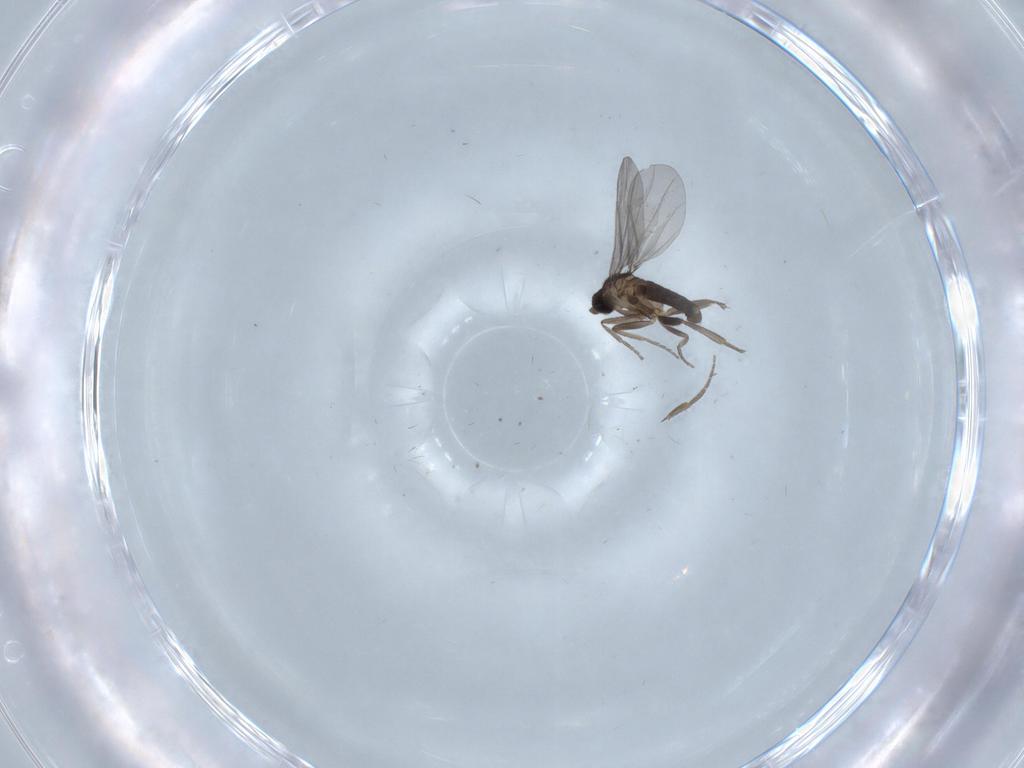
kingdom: Animalia
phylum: Arthropoda
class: Insecta
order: Diptera
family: Phoridae
